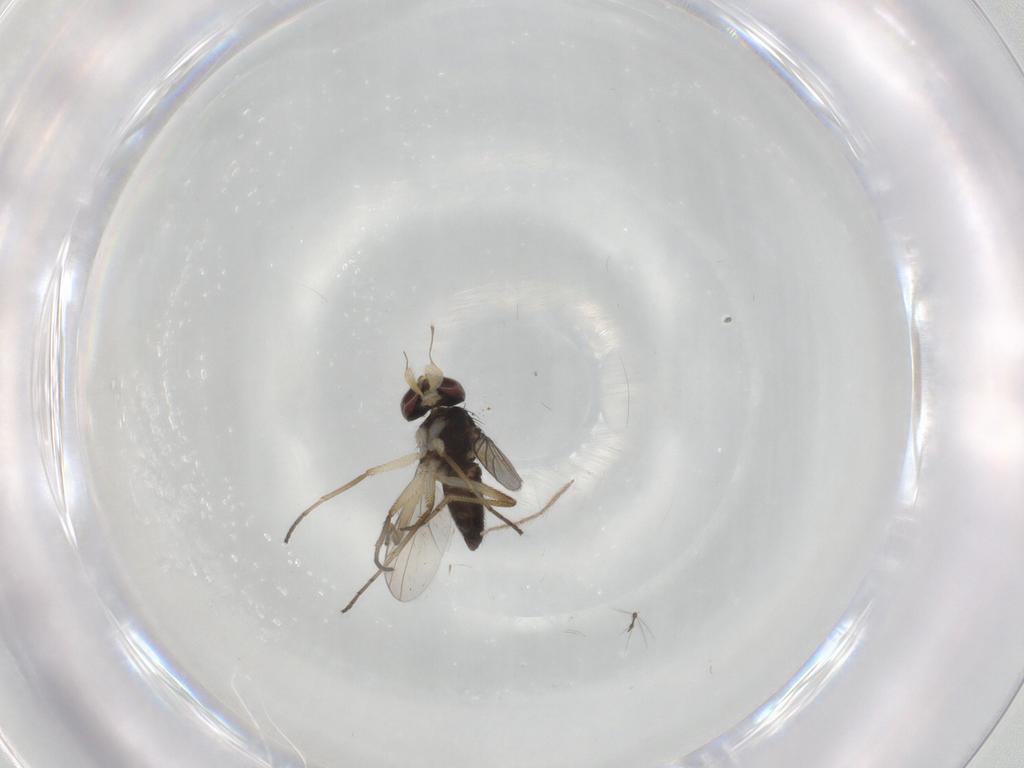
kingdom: Animalia
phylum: Arthropoda
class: Insecta
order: Diptera
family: Dolichopodidae
